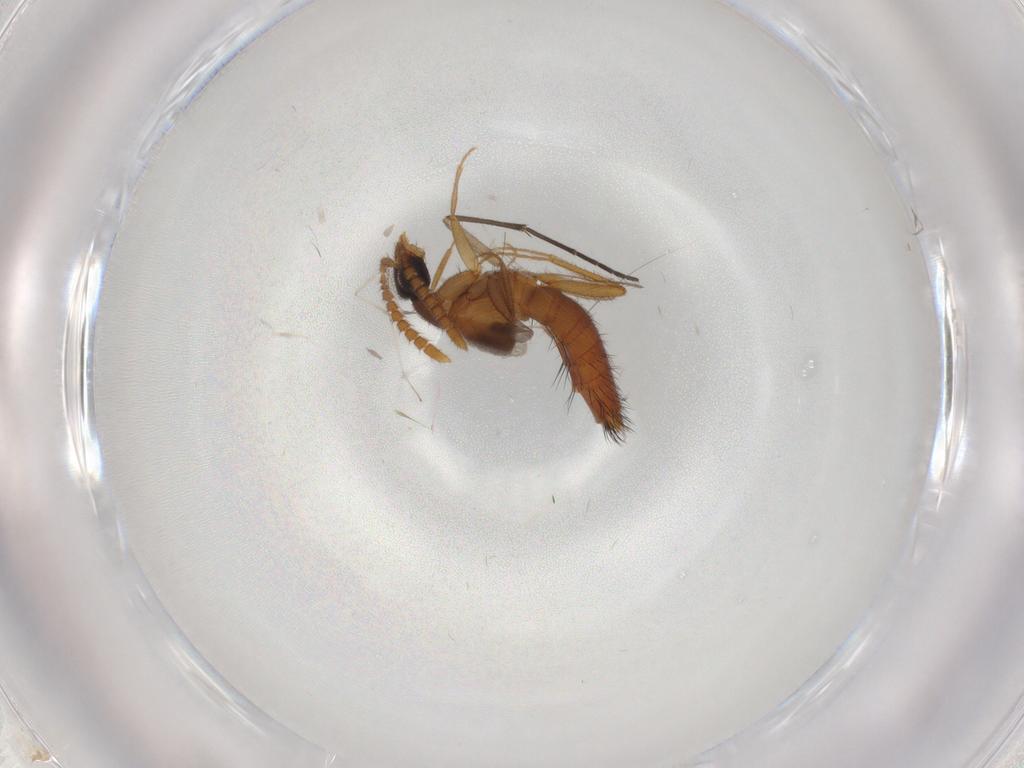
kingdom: Animalia
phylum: Arthropoda
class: Insecta
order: Coleoptera
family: Staphylinidae
